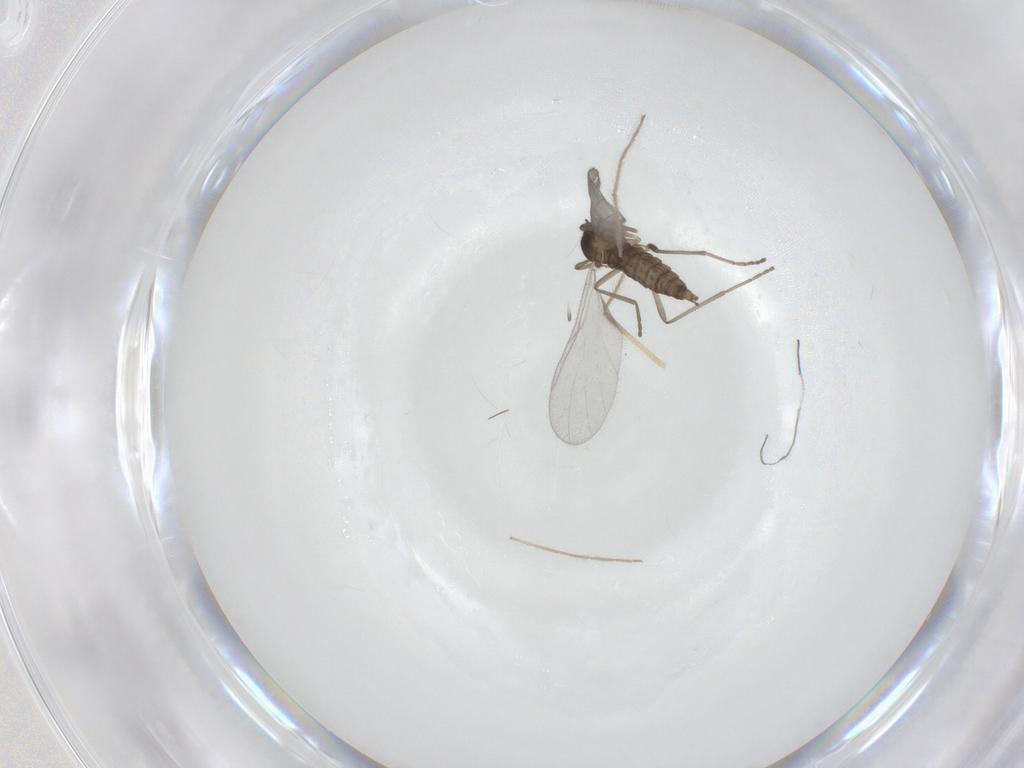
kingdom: Animalia
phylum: Arthropoda
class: Insecta
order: Diptera
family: Cecidomyiidae
